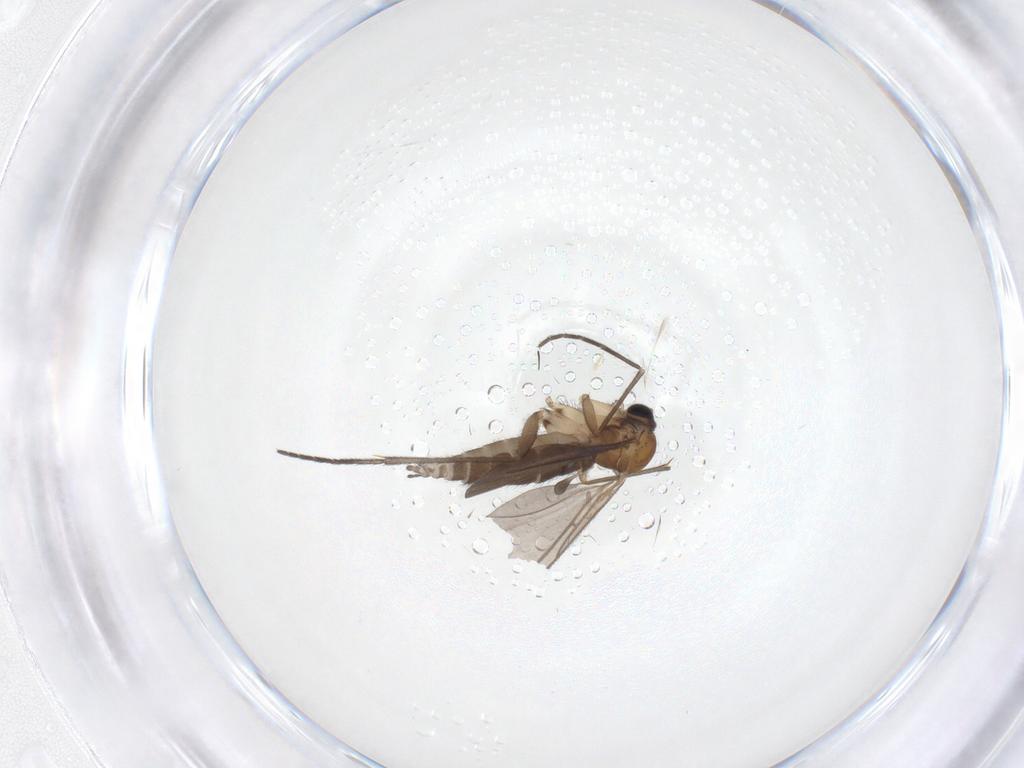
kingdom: Animalia
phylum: Arthropoda
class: Insecta
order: Diptera
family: Sciaridae
